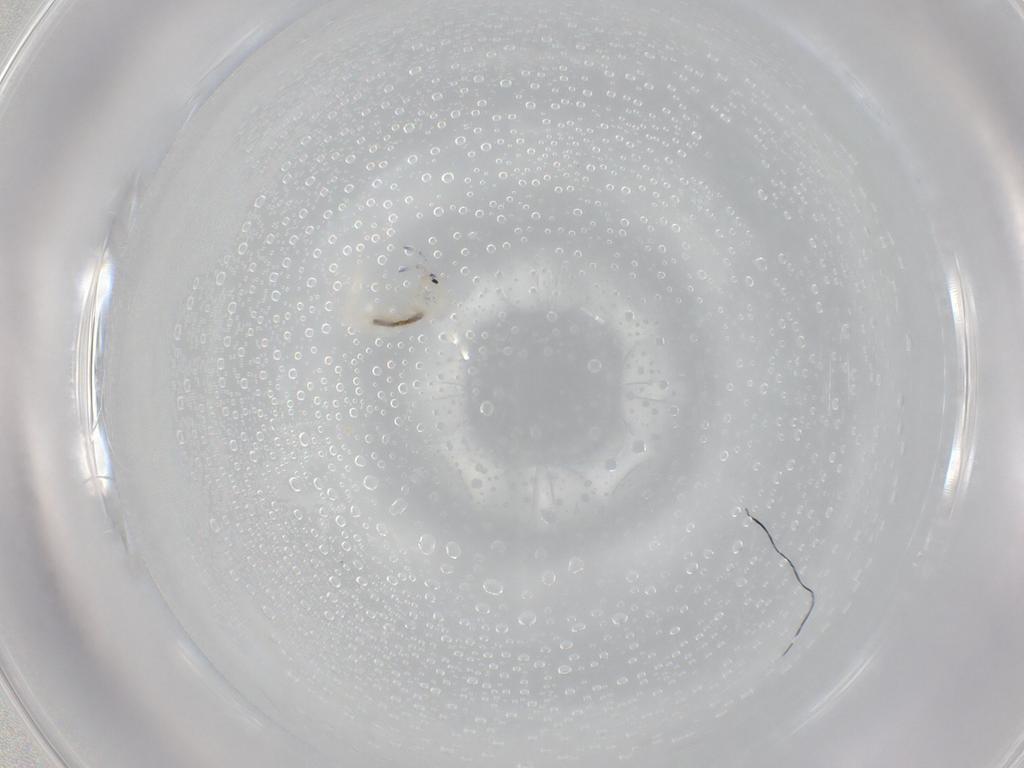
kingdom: Animalia
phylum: Arthropoda
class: Collembola
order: Entomobryomorpha
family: Entomobryidae
